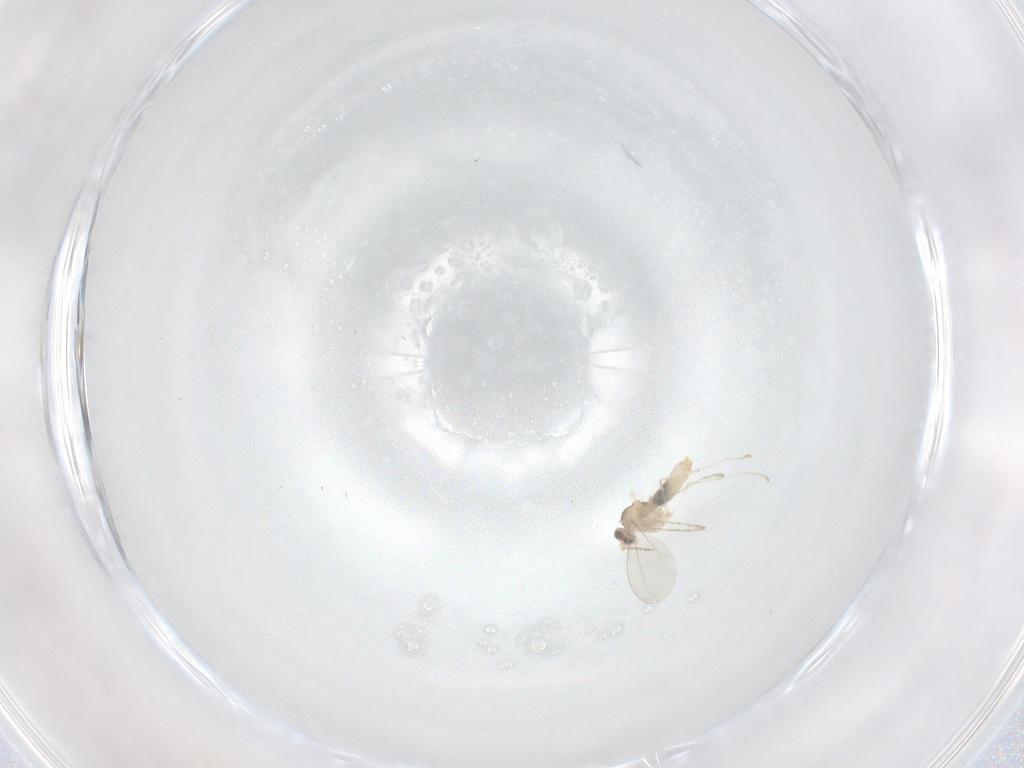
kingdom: Animalia
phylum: Arthropoda
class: Insecta
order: Diptera
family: Cecidomyiidae
